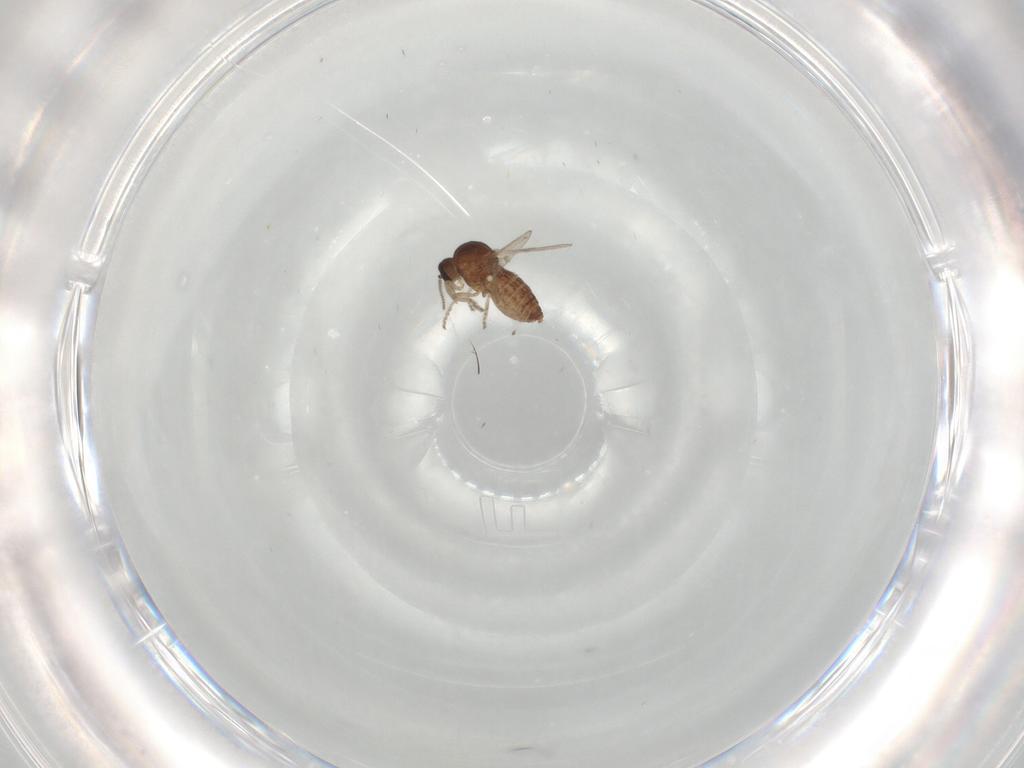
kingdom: Animalia
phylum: Arthropoda
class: Insecta
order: Diptera
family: Ceratopogonidae
